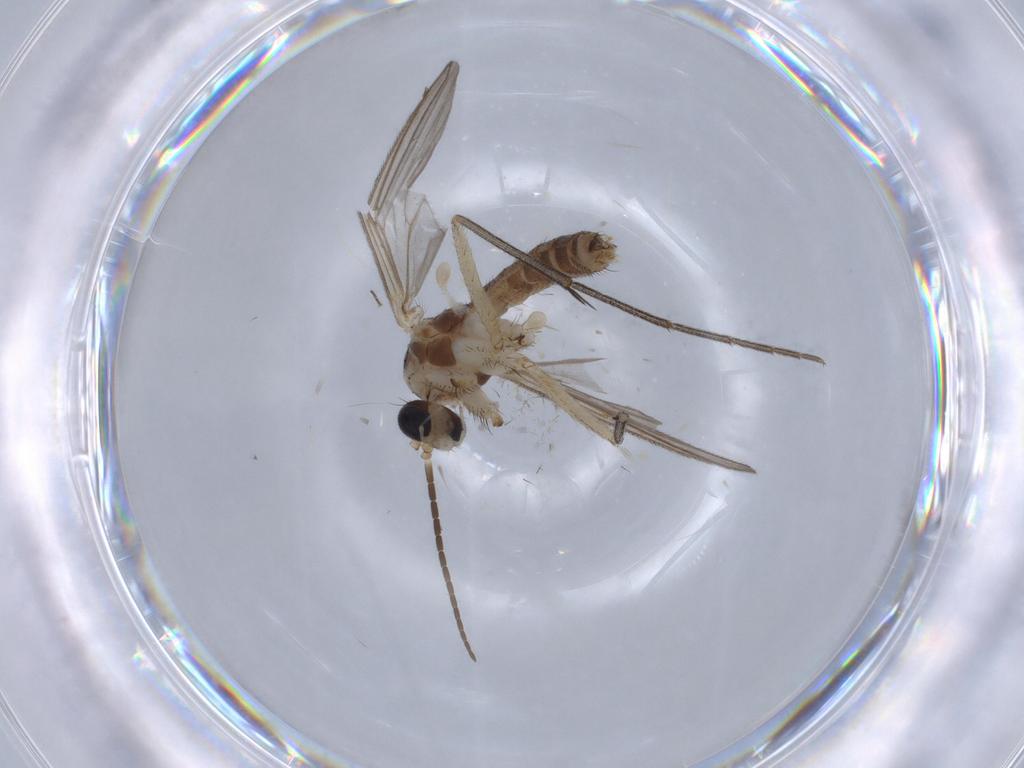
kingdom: Animalia
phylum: Arthropoda
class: Insecta
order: Diptera
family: Mycetophilidae
